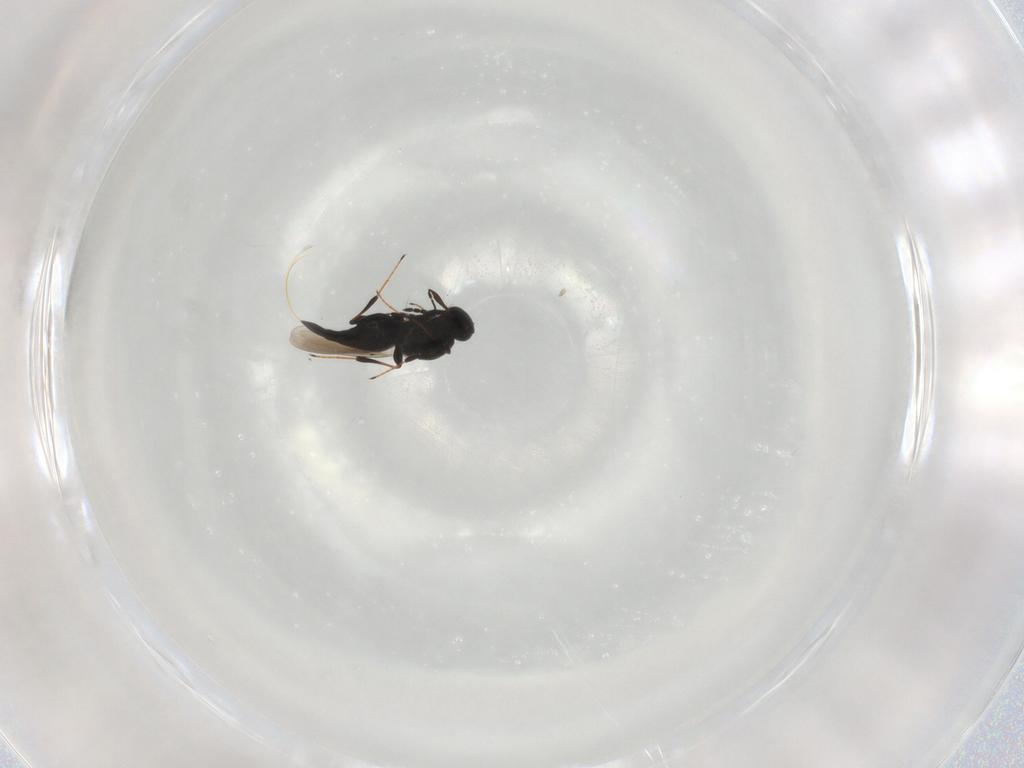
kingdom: Animalia
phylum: Arthropoda
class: Insecta
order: Hymenoptera
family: Platygastridae
